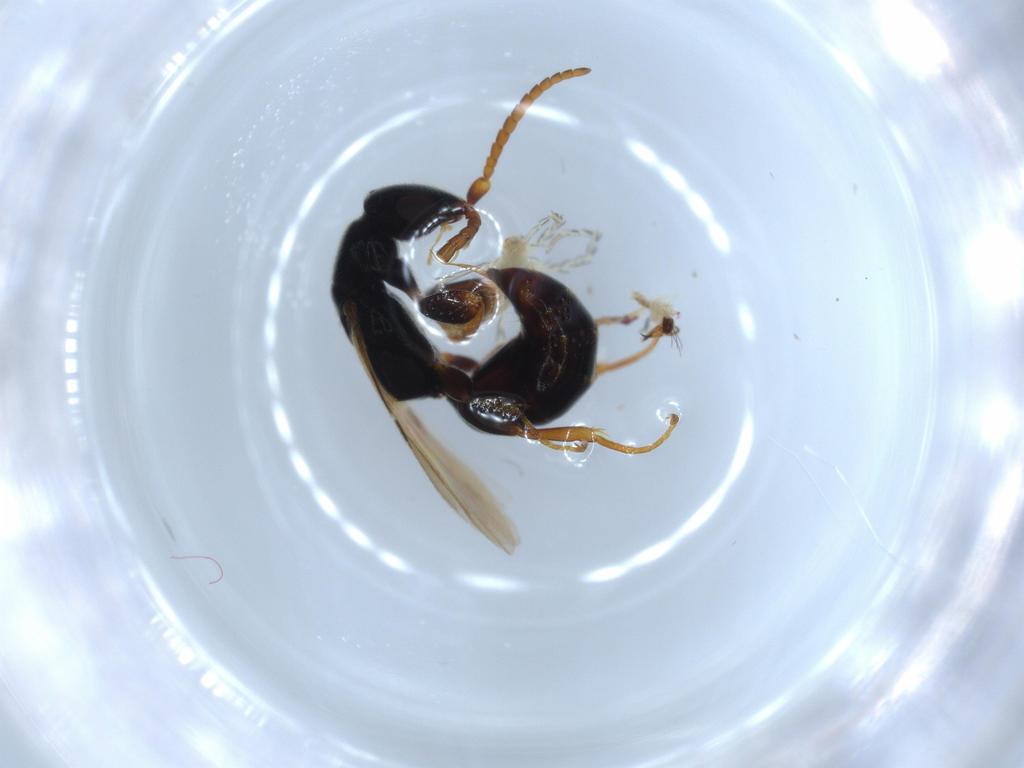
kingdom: Animalia
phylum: Arthropoda
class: Arachnida
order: Trombidiformes
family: Erythraeidae
